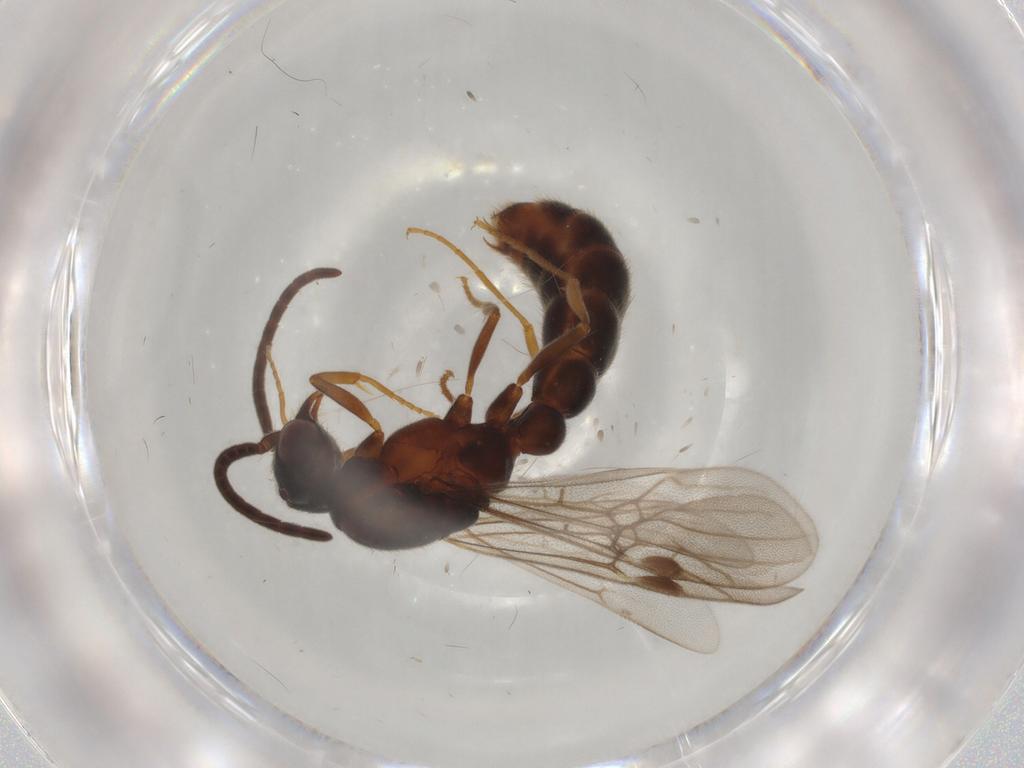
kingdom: Animalia
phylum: Arthropoda
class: Insecta
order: Hymenoptera
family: Formicidae
